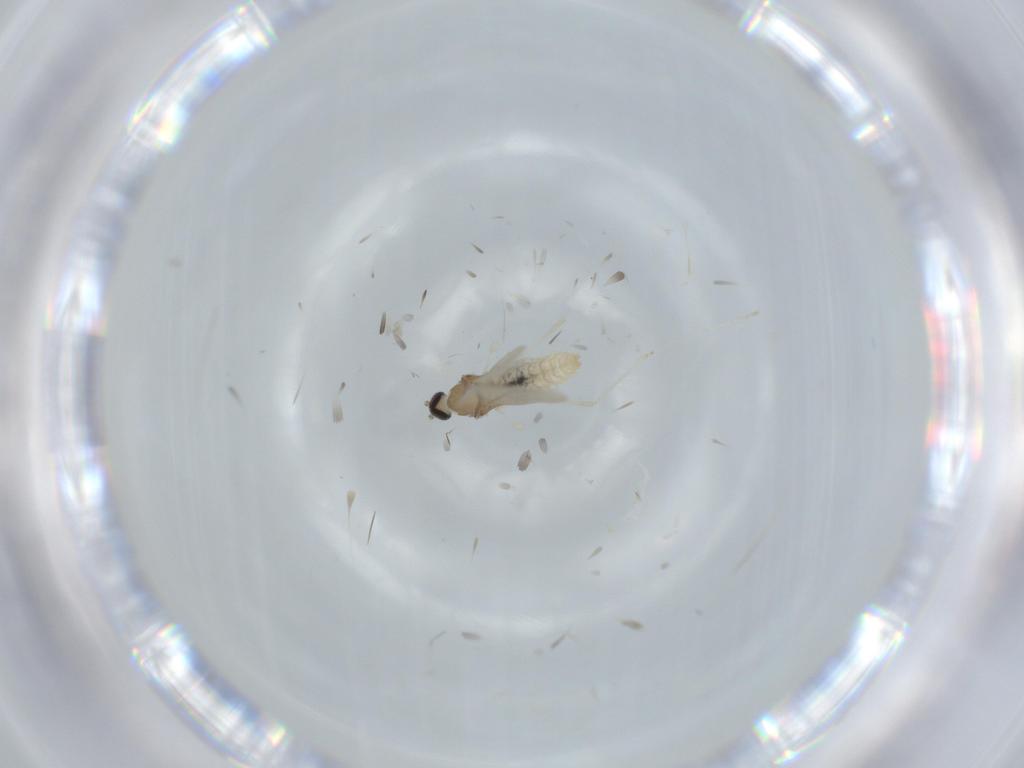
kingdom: Animalia
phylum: Arthropoda
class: Insecta
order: Diptera
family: Cecidomyiidae
